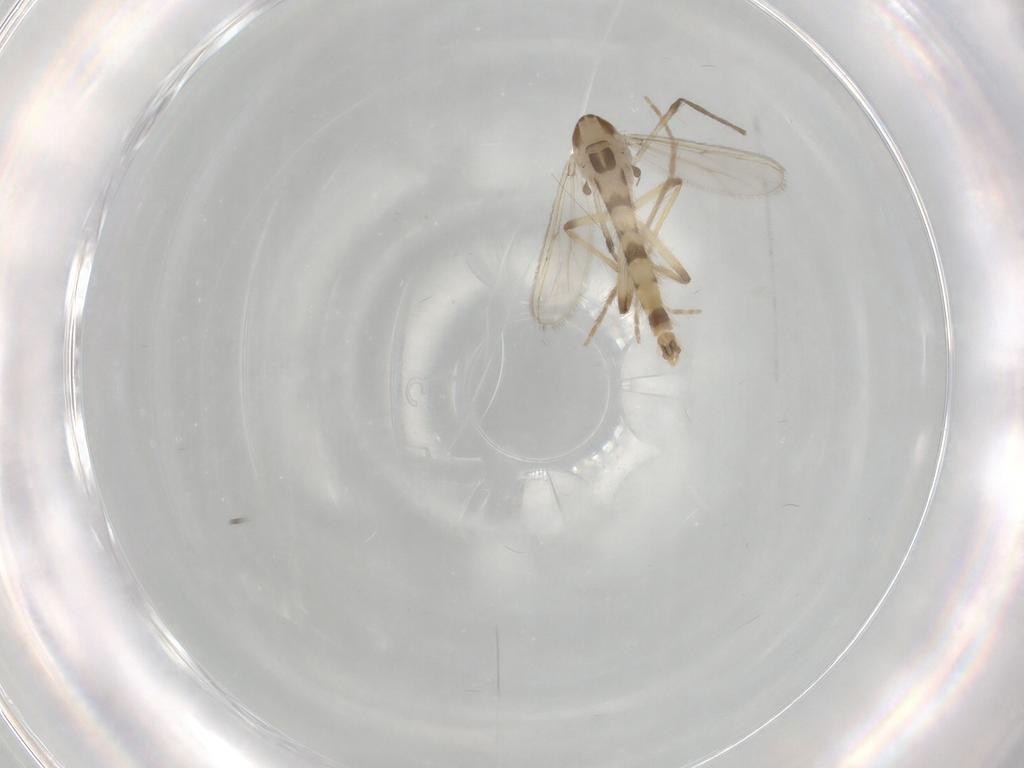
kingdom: Animalia
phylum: Arthropoda
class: Insecta
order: Diptera
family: Chironomidae
